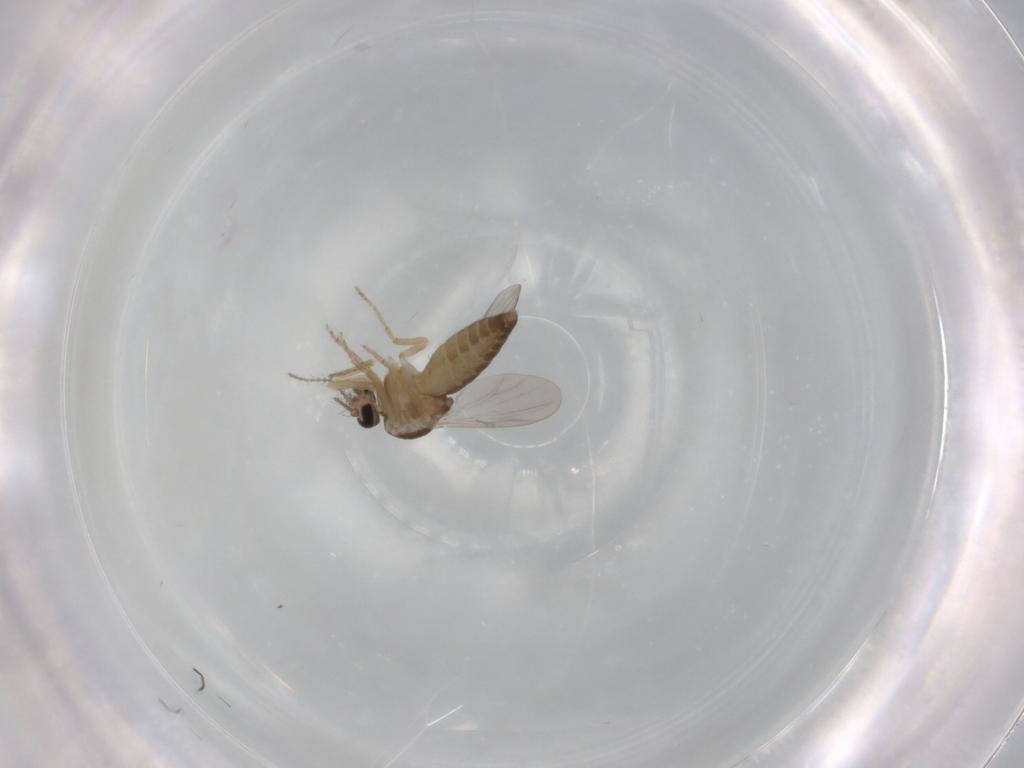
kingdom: Animalia
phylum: Arthropoda
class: Insecta
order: Diptera
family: Ceratopogonidae
